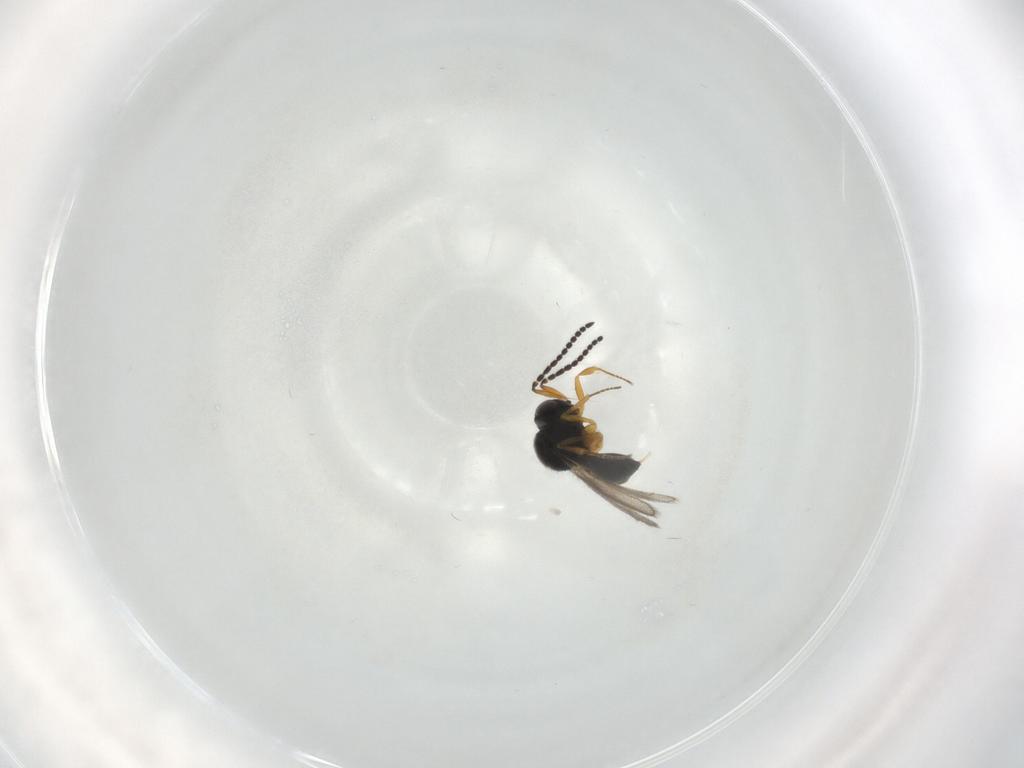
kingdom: Animalia
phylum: Arthropoda
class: Insecta
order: Hymenoptera
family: Scelionidae
